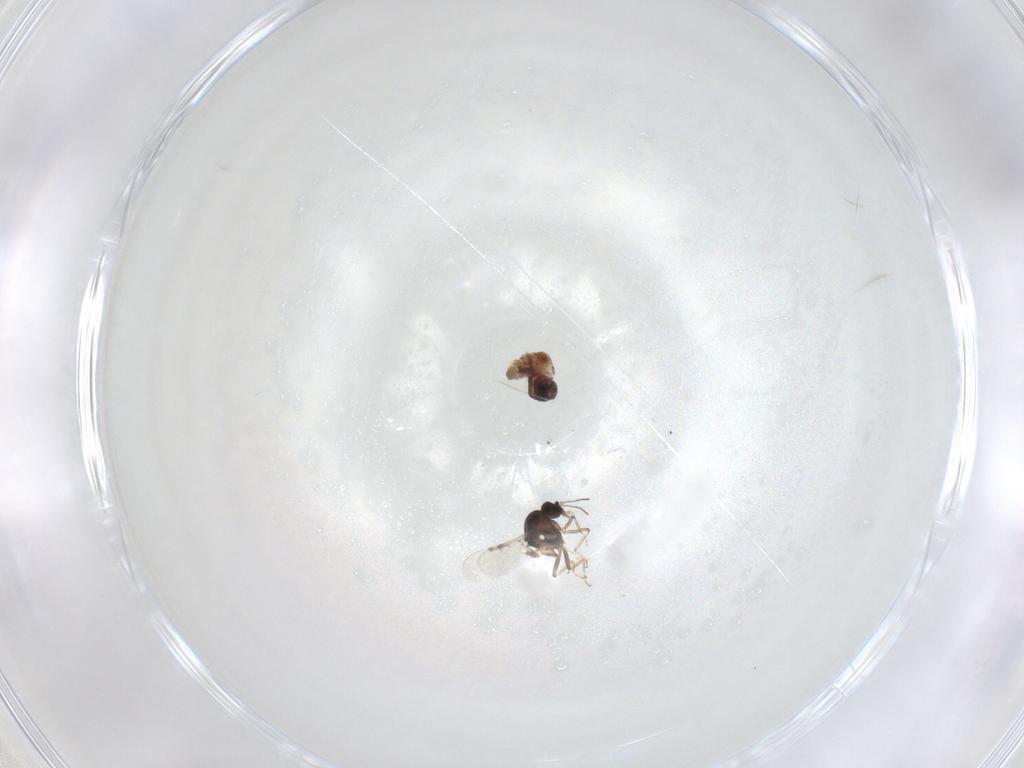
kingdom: Animalia
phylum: Arthropoda
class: Insecta
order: Diptera
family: Ceratopogonidae
